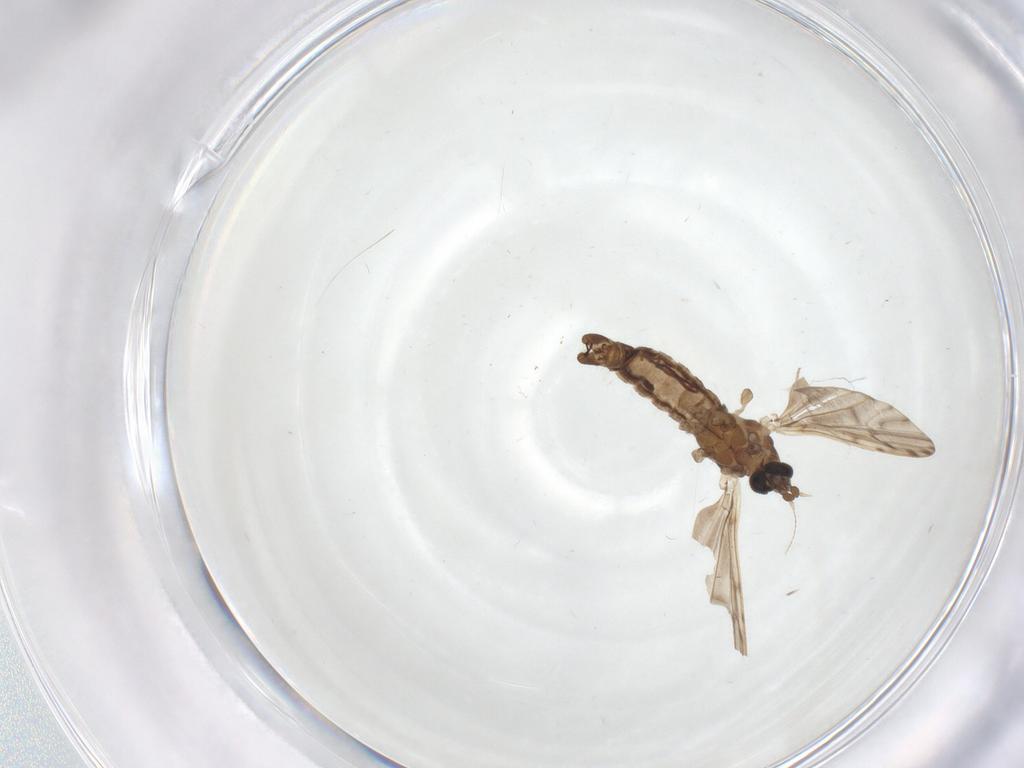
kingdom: Animalia
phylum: Arthropoda
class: Insecta
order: Diptera
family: Limoniidae
